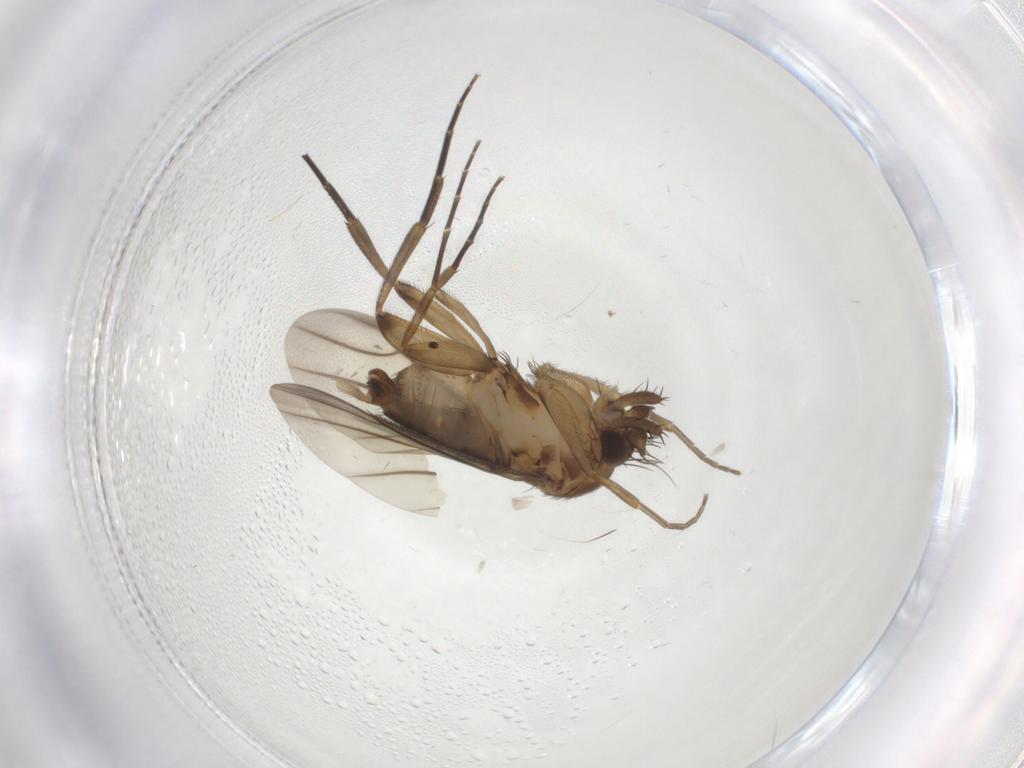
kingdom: Animalia
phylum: Arthropoda
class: Insecta
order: Diptera
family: Phoridae
